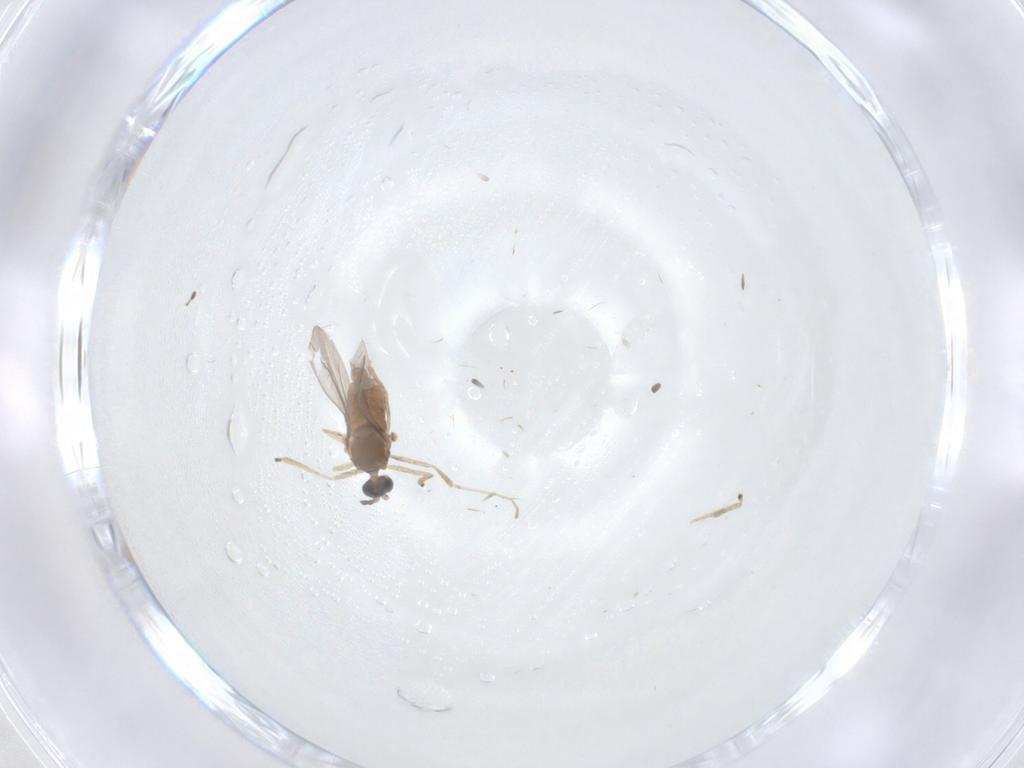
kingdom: Animalia
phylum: Arthropoda
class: Insecta
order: Diptera
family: Cecidomyiidae
